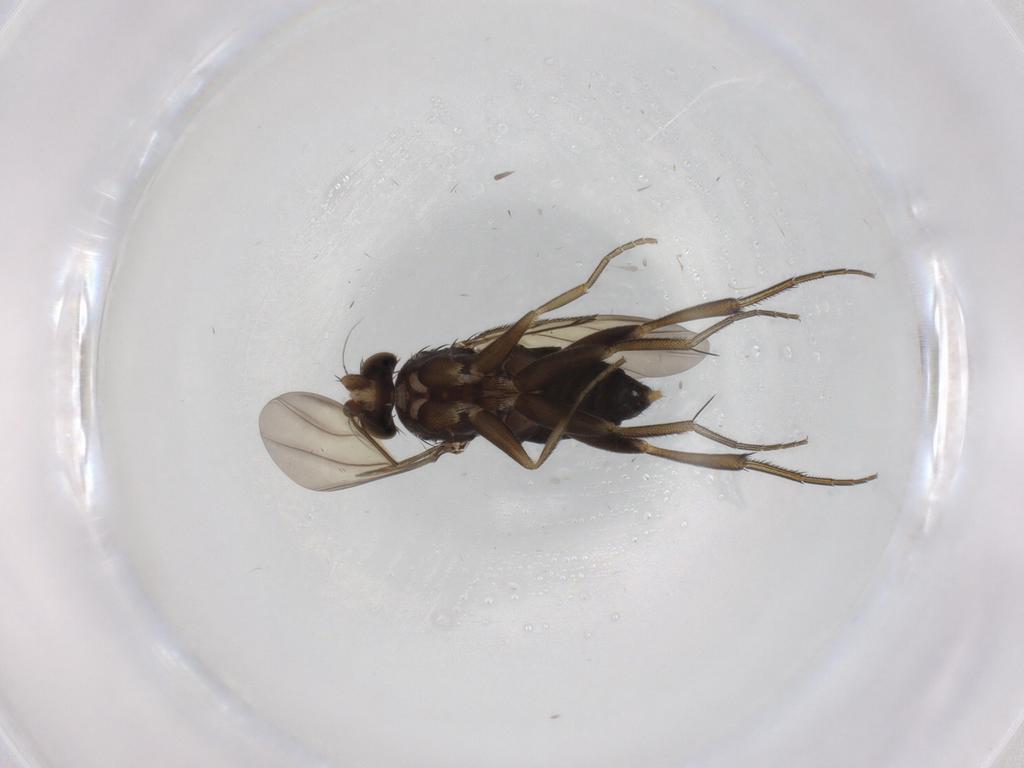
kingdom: Animalia
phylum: Arthropoda
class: Insecta
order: Diptera
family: Phoridae
